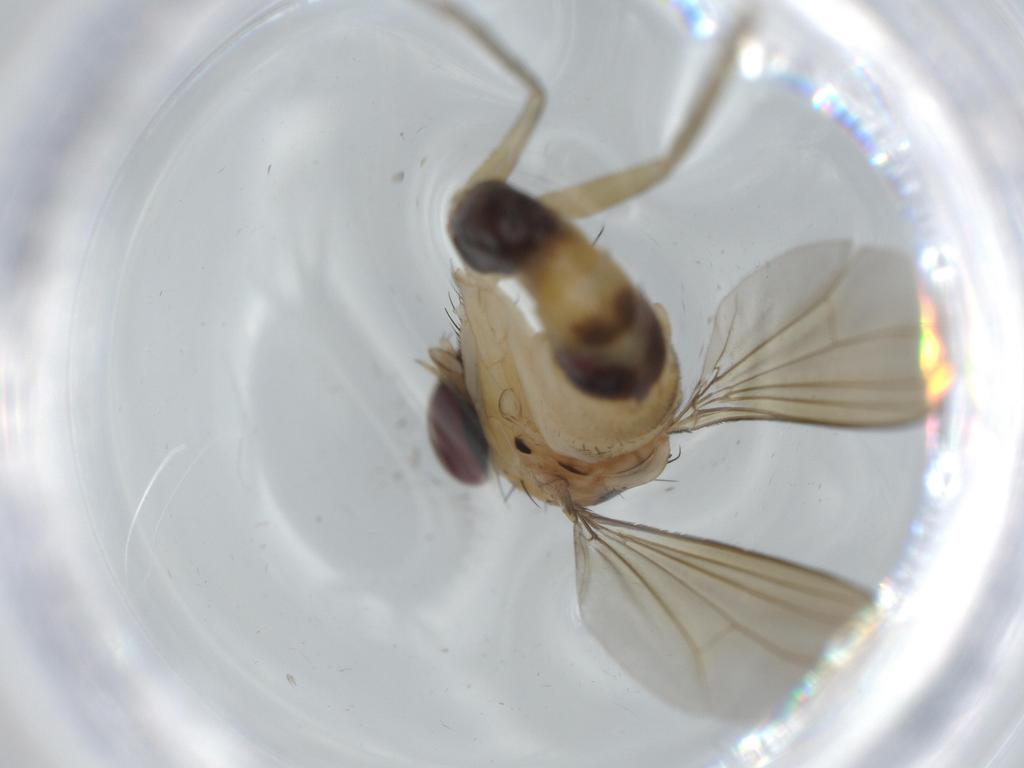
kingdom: Animalia
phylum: Arthropoda
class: Insecta
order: Diptera
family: Dolichopodidae
